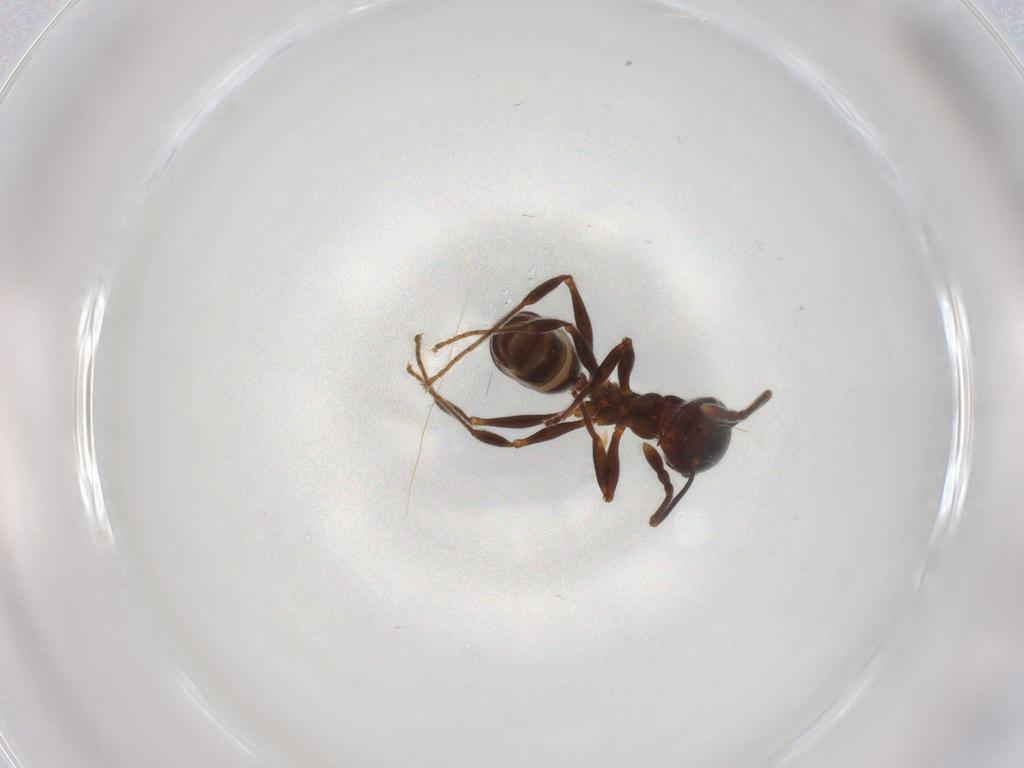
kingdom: Animalia
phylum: Arthropoda
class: Insecta
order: Hymenoptera
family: Formicidae
